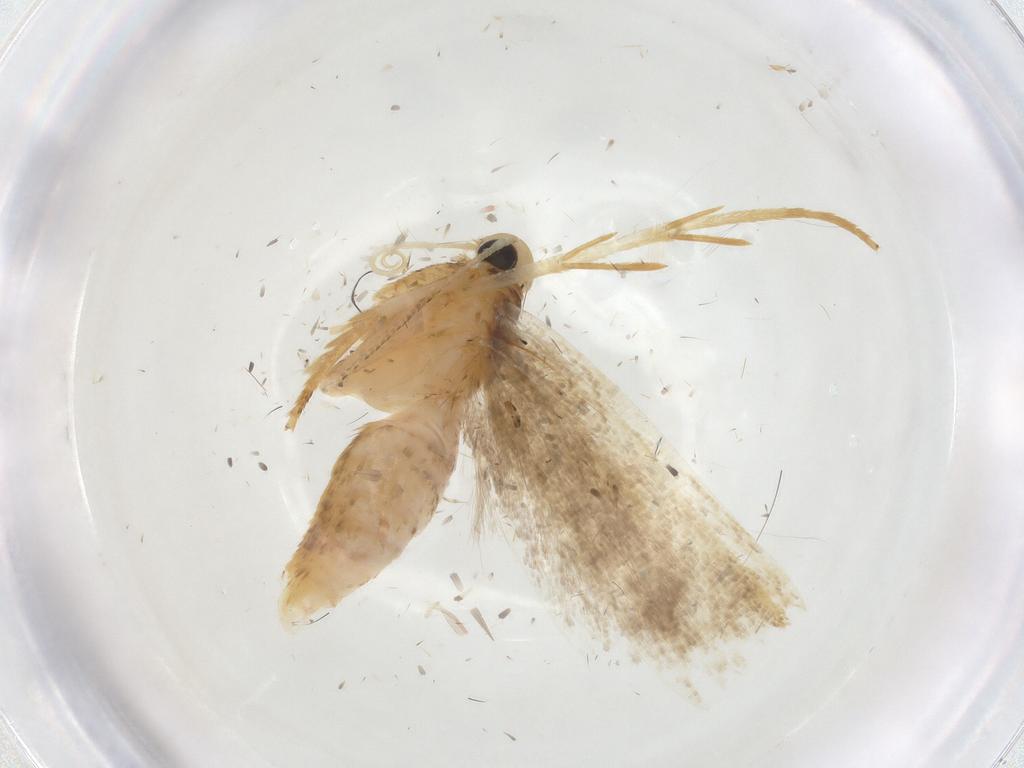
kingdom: Animalia
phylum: Arthropoda
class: Insecta
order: Lepidoptera
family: Gelechiidae
